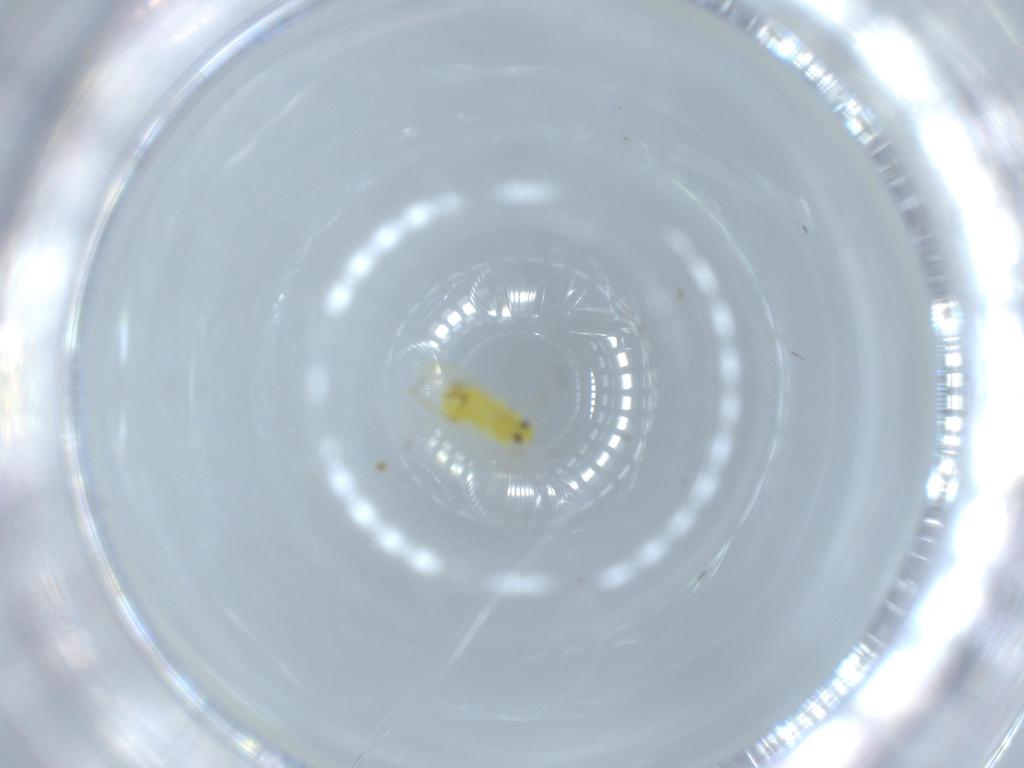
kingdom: Animalia
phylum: Arthropoda
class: Insecta
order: Hemiptera
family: Aleyrodidae
